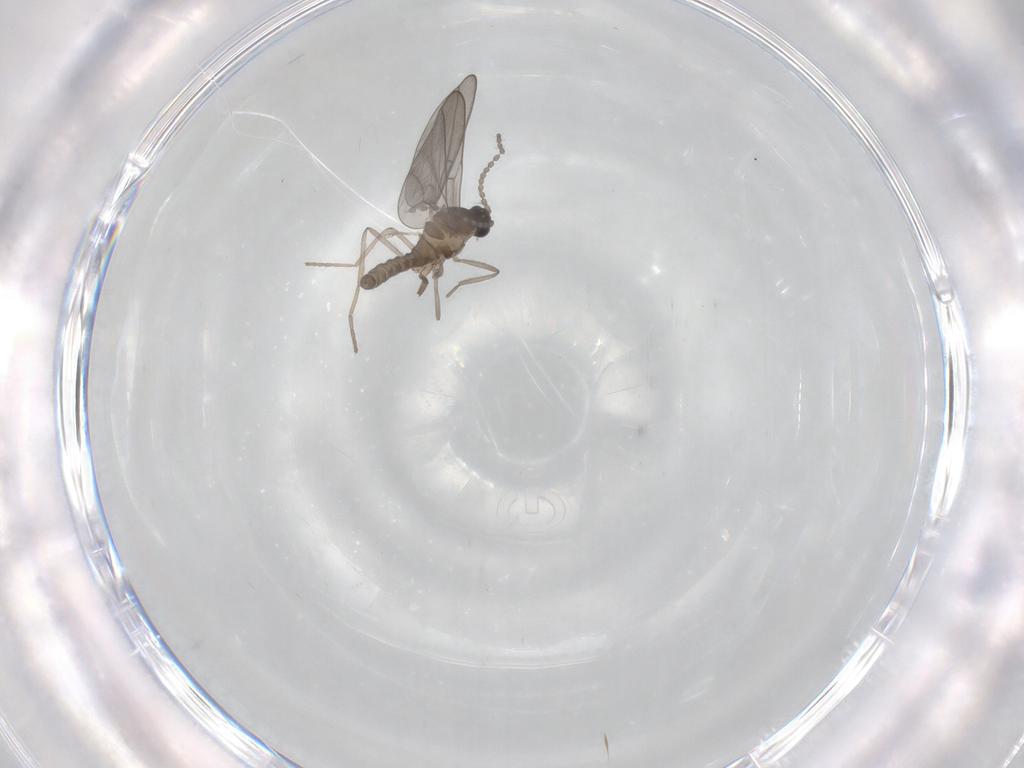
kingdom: Animalia
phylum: Arthropoda
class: Insecta
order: Diptera
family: Cecidomyiidae
